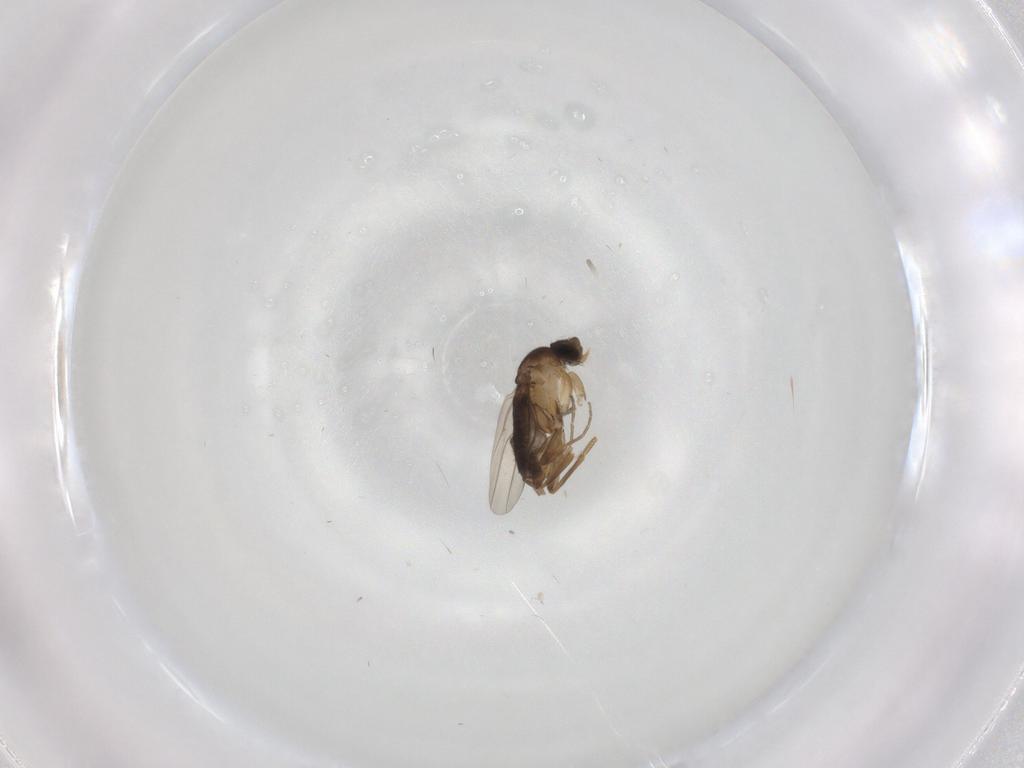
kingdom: Animalia
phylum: Arthropoda
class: Insecta
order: Diptera
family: Phoridae
